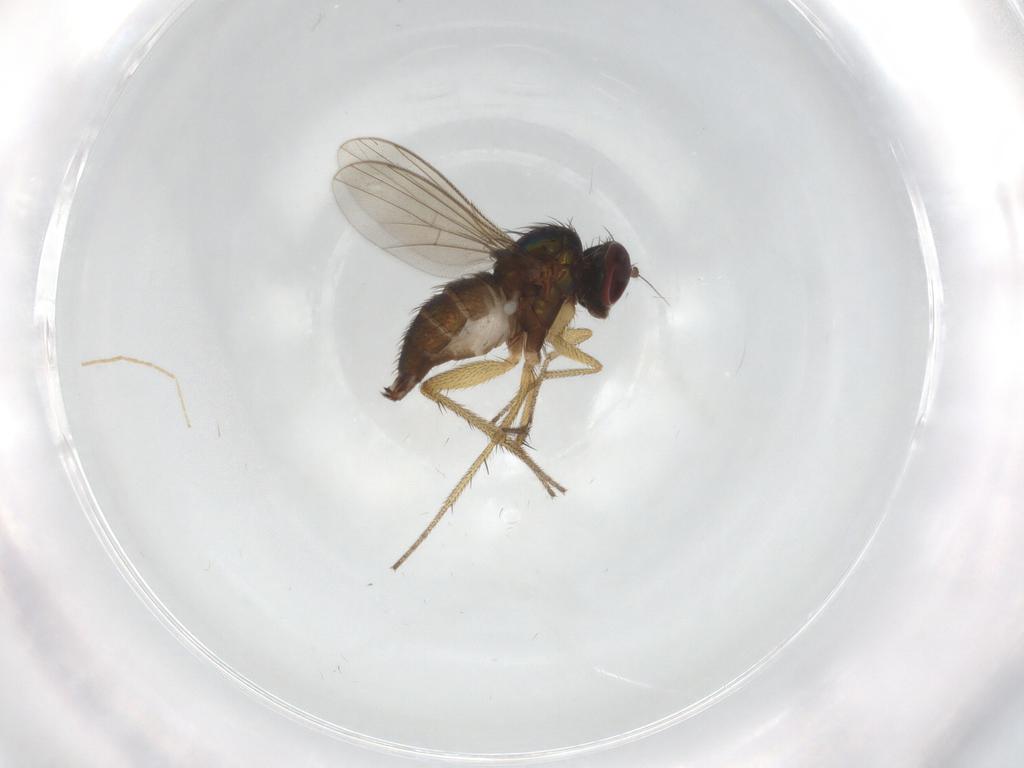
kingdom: Animalia
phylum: Arthropoda
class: Insecta
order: Diptera
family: Dolichopodidae
